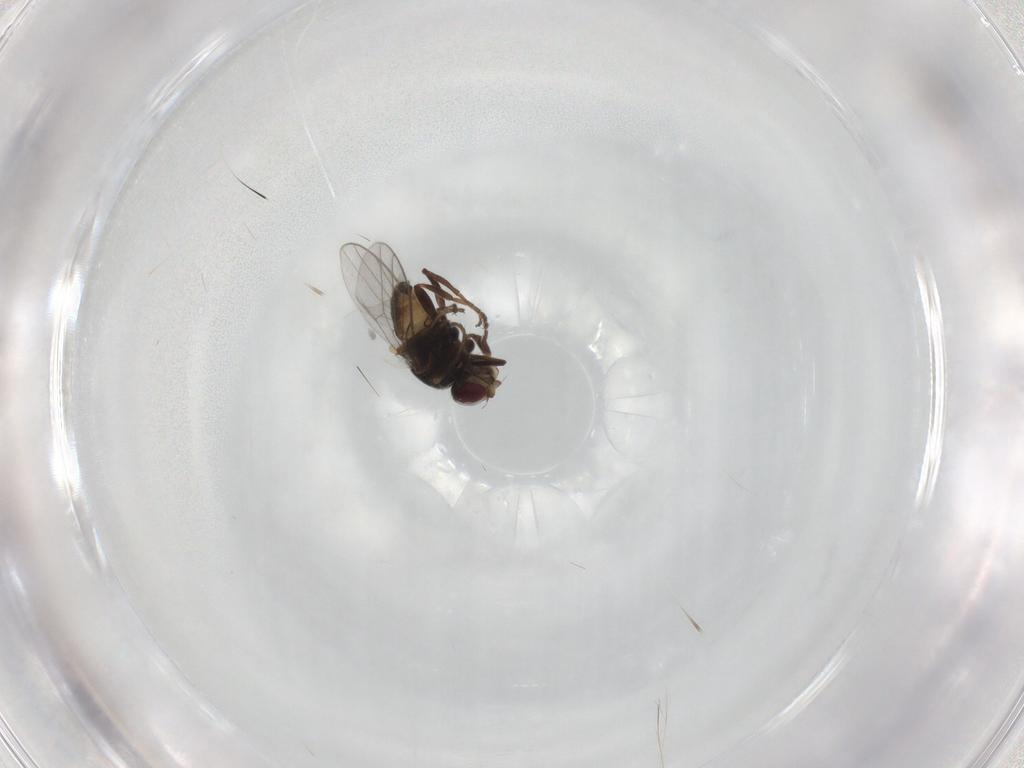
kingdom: Animalia
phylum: Arthropoda
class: Insecta
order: Diptera
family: Chloropidae
